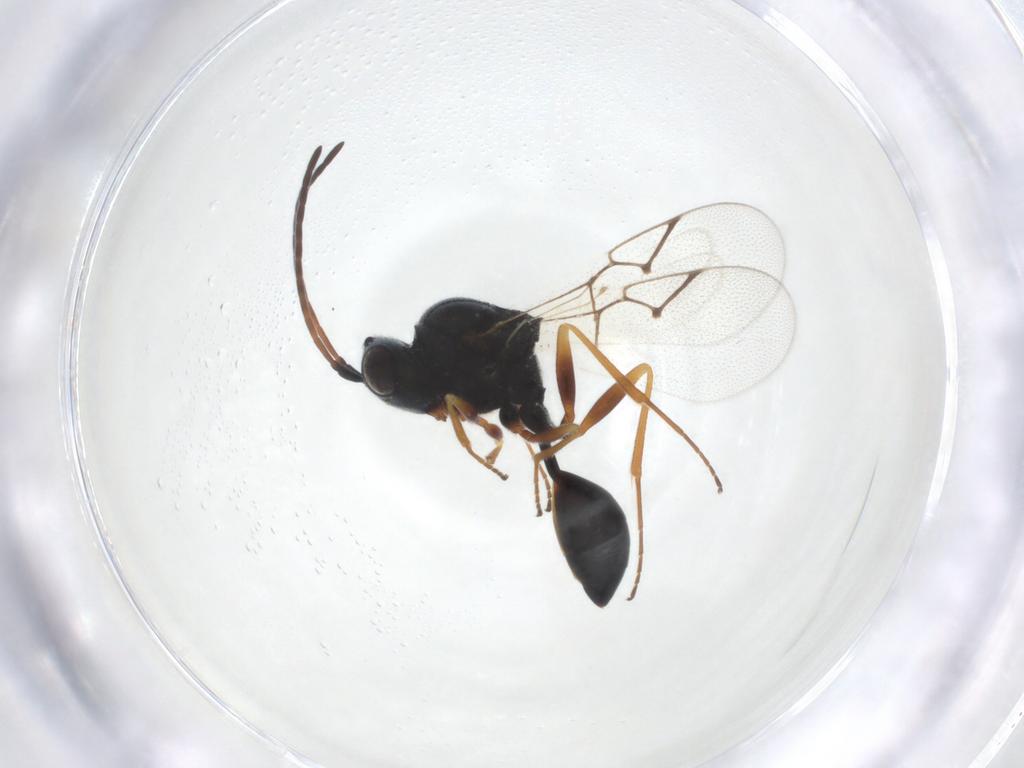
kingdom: Animalia
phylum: Arthropoda
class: Insecta
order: Hymenoptera
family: Figitidae
